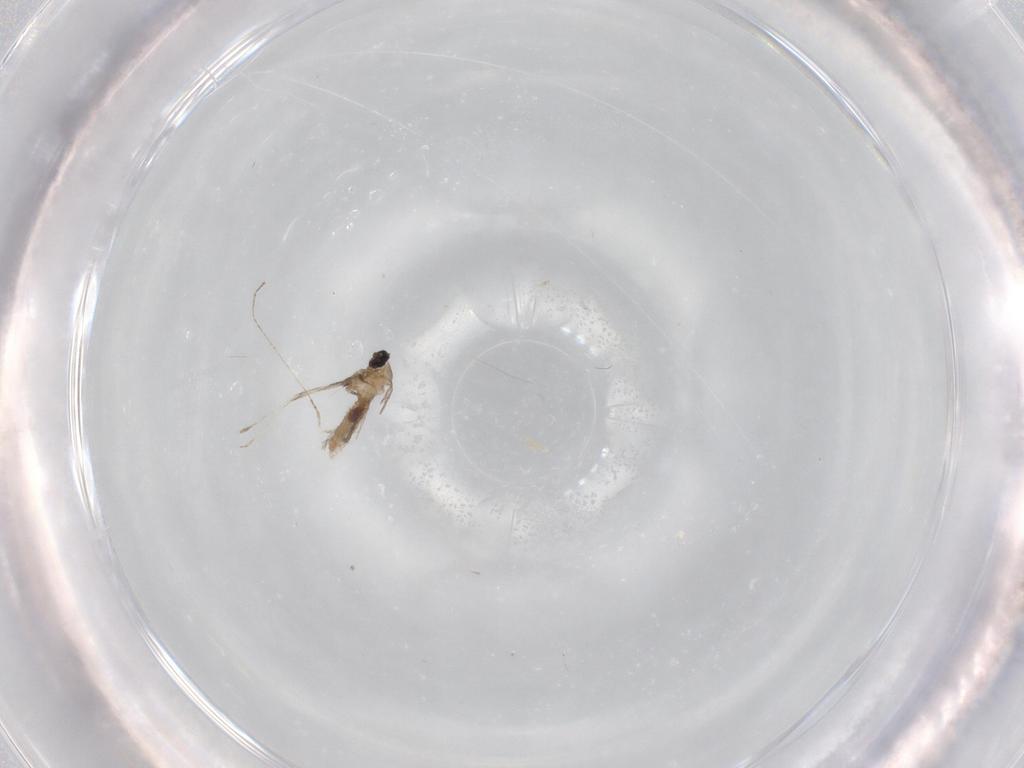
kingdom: Animalia
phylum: Arthropoda
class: Insecta
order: Diptera
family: Cecidomyiidae
